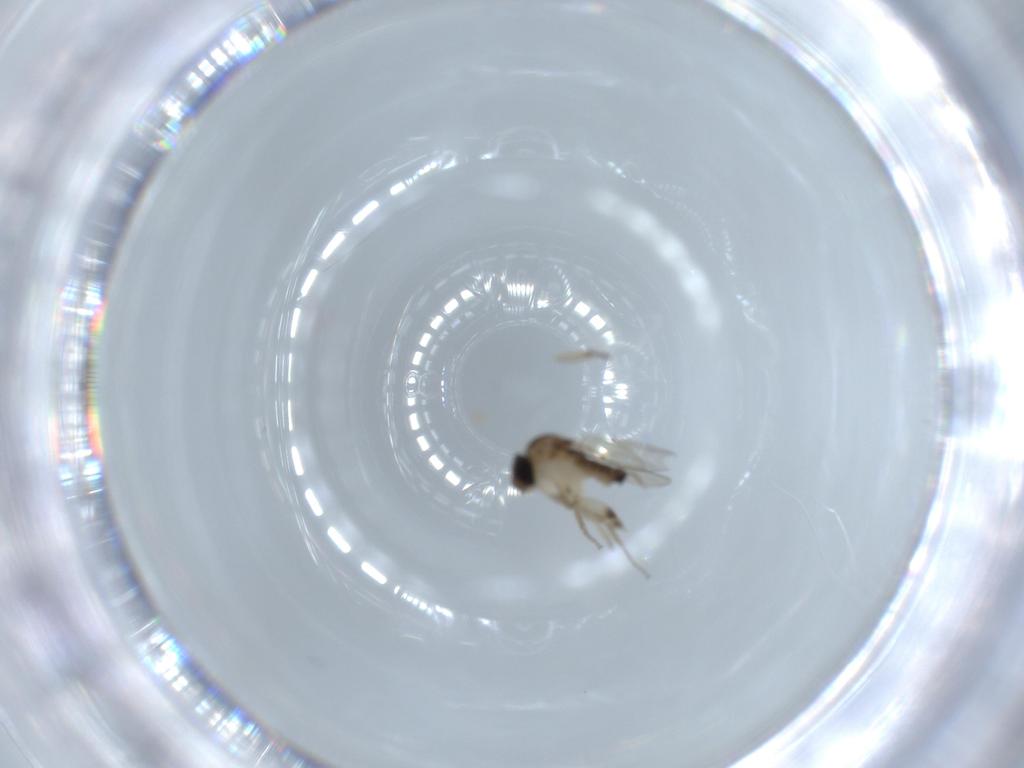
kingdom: Animalia
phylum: Arthropoda
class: Insecta
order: Diptera
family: Phoridae
